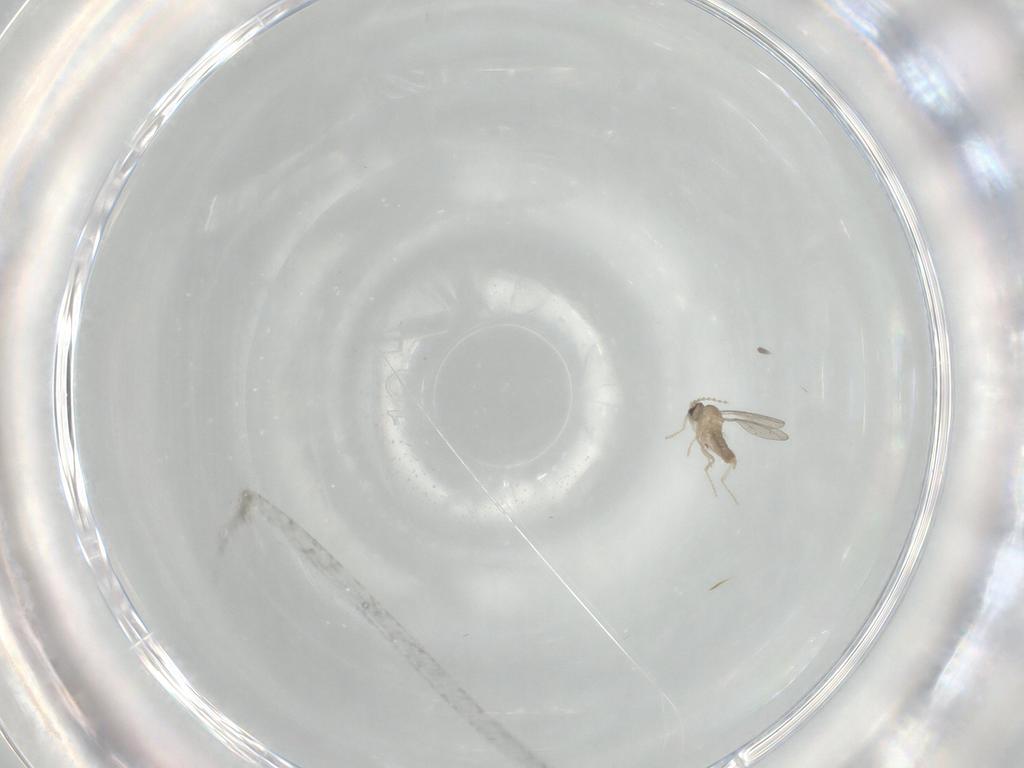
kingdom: Animalia
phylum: Arthropoda
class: Insecta
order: Diptera
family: Cecidomyiidae
